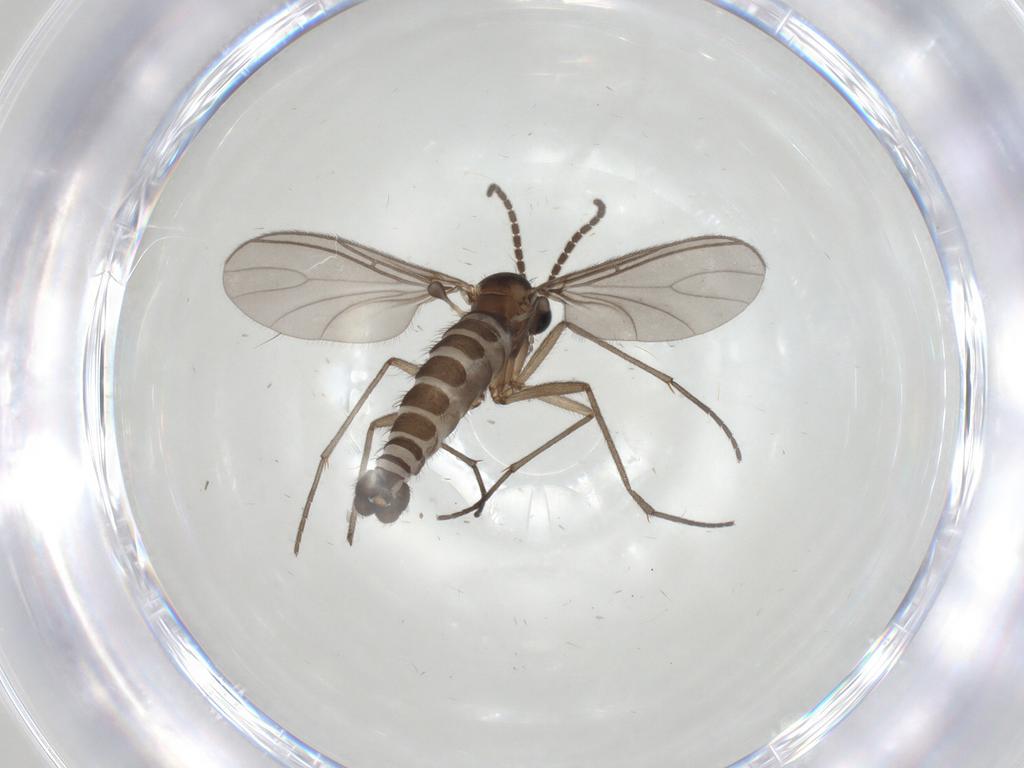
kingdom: Animalia
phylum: Arthropoda
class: Insecta
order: Diptera
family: Sciaridae
